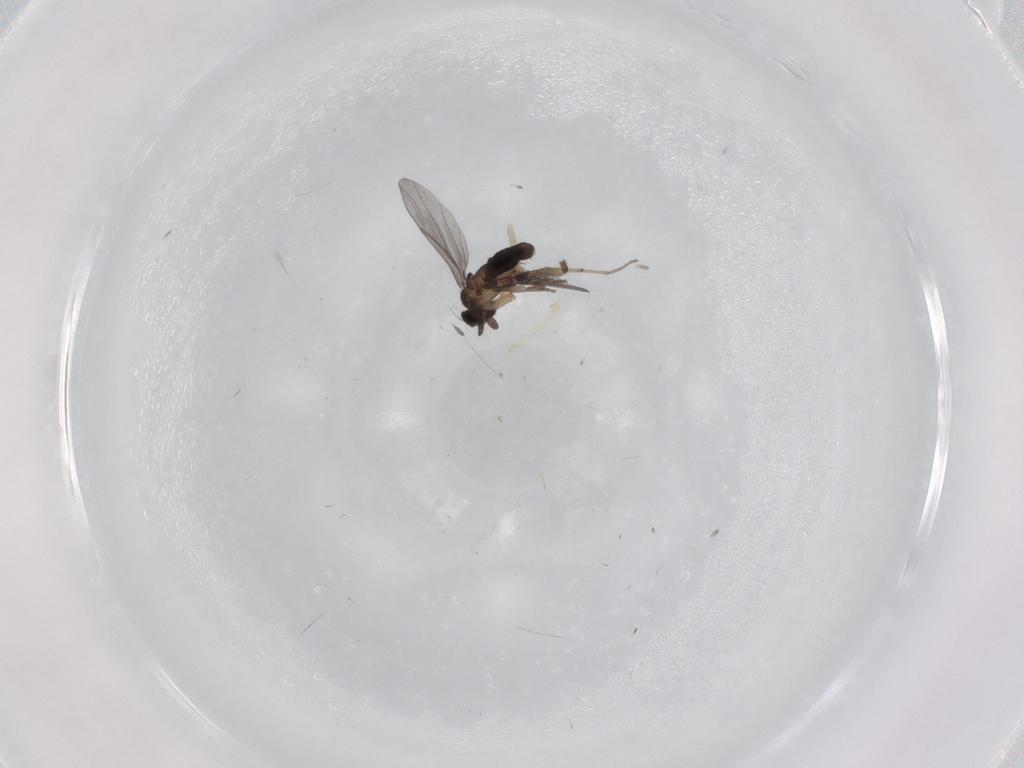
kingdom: Animalia
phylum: Arthropoda
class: Insecta
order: Diptera
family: Chironomidae
